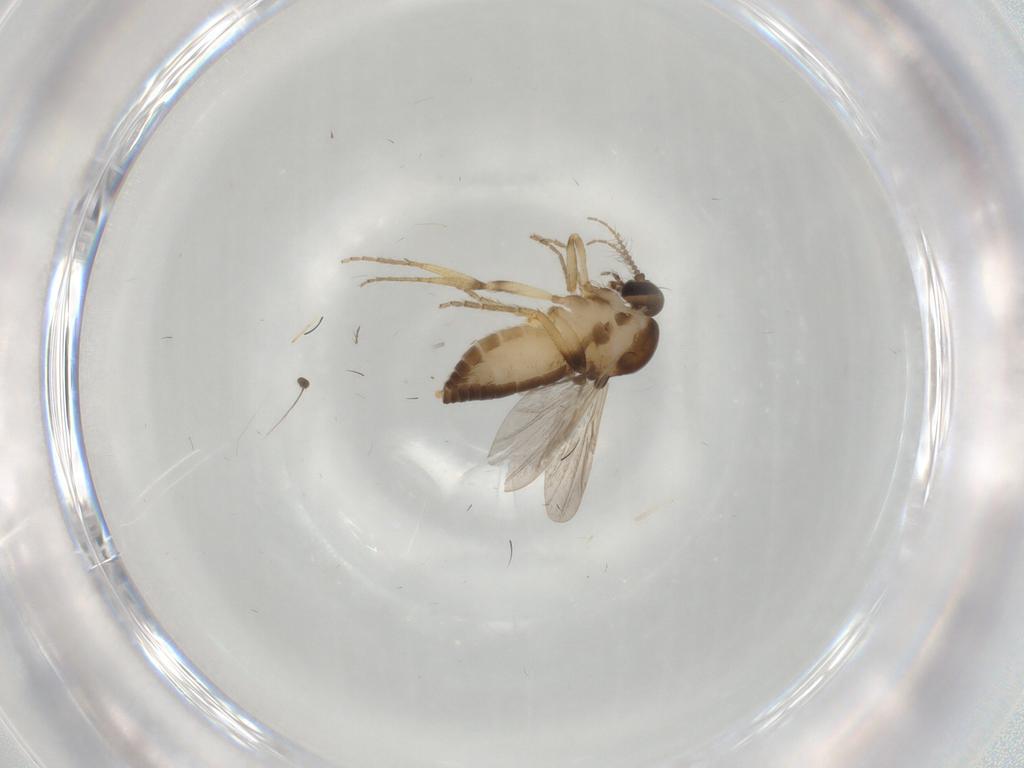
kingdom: Animalia
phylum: Arthropoda
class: Insecta
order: Diptera
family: Ceratopogonidae
